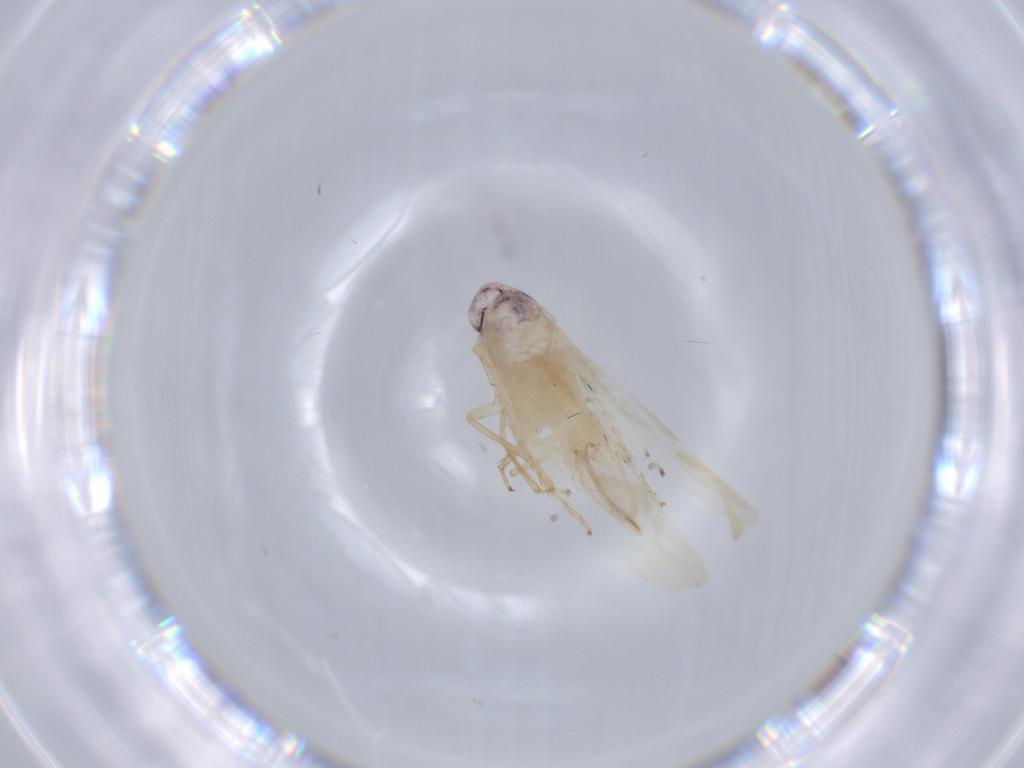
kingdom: Animalia
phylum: Arthropoda
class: Insecta
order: Hemiptera
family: Cicadellidae
